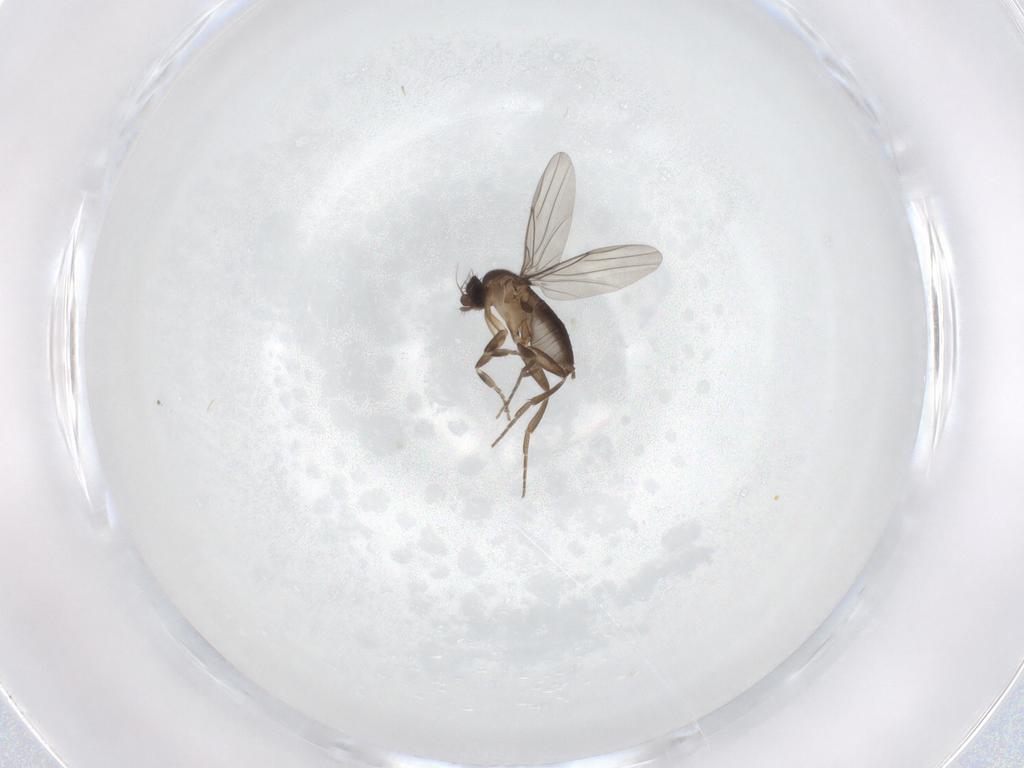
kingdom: Animalia
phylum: Arthropoda
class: Insecta
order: Diptera
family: Phoridae
